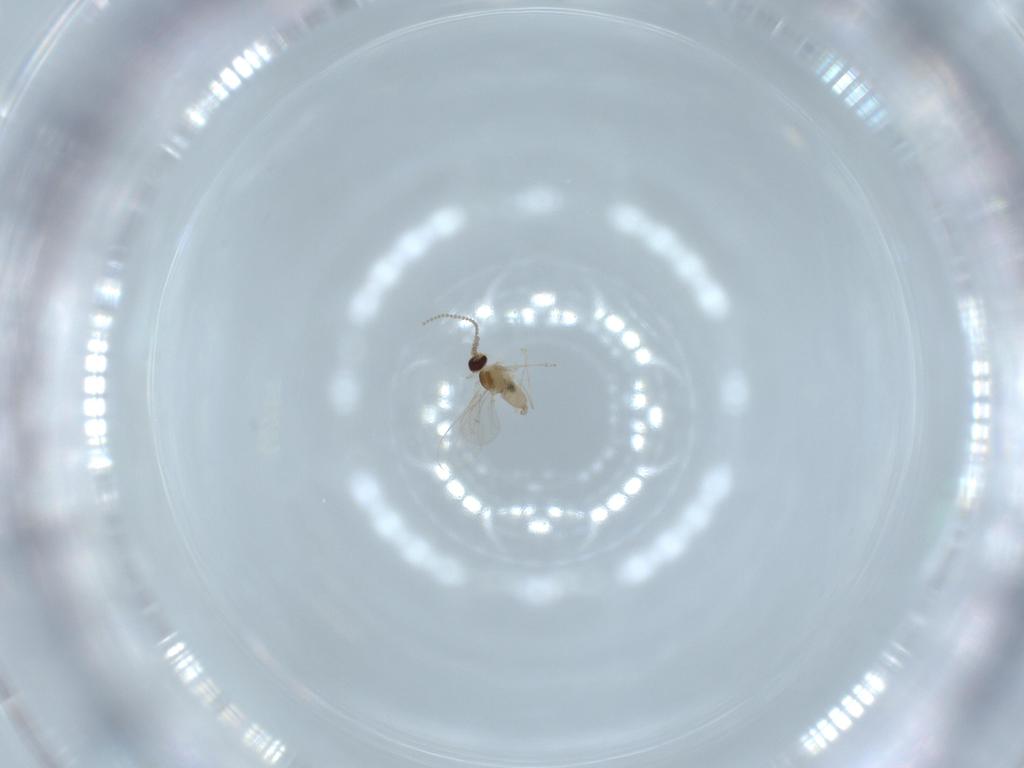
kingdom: Animalia
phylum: Arthropoda
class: Insecta
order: Diptera
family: Cecidomyiidae
